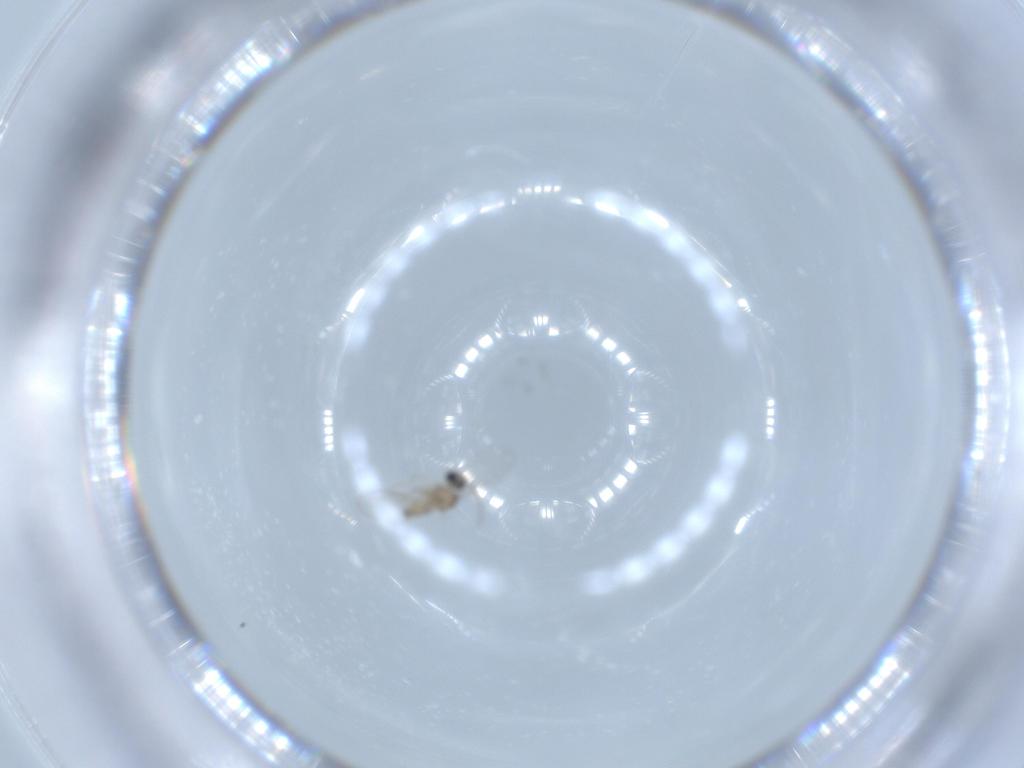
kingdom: Animalia
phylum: Arthropoda
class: Insecta
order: Diptera
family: Cecidomyiidae
